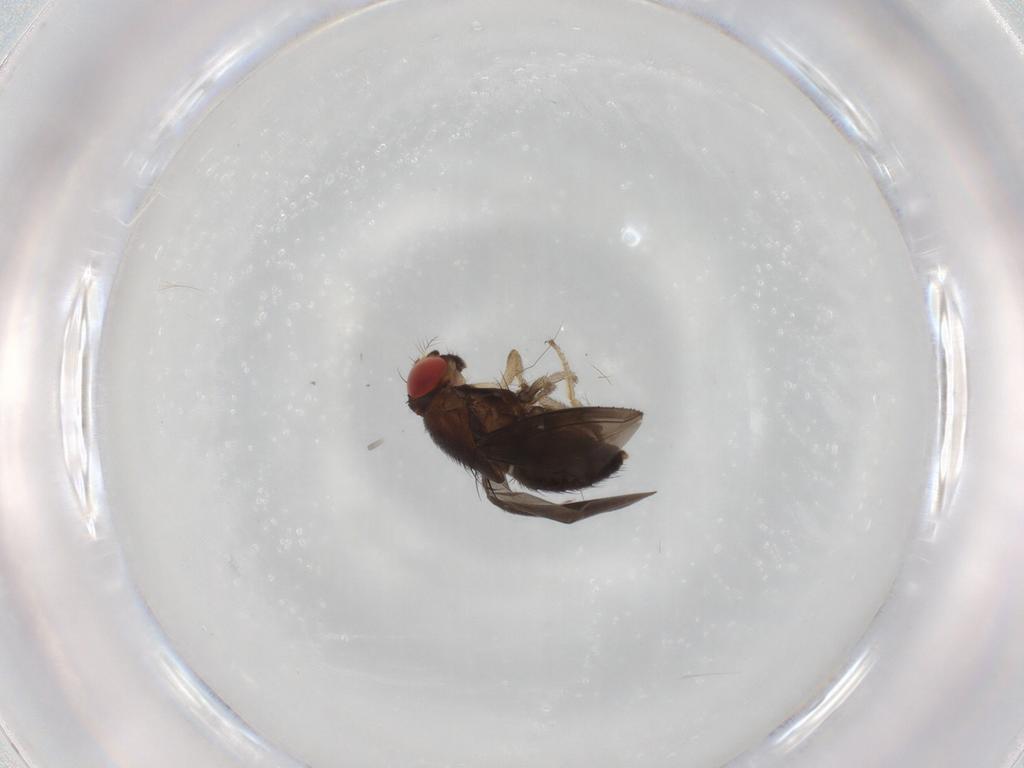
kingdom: Animalia
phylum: Arthropoda
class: Insecta
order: Diptera
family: Drosophilidae
